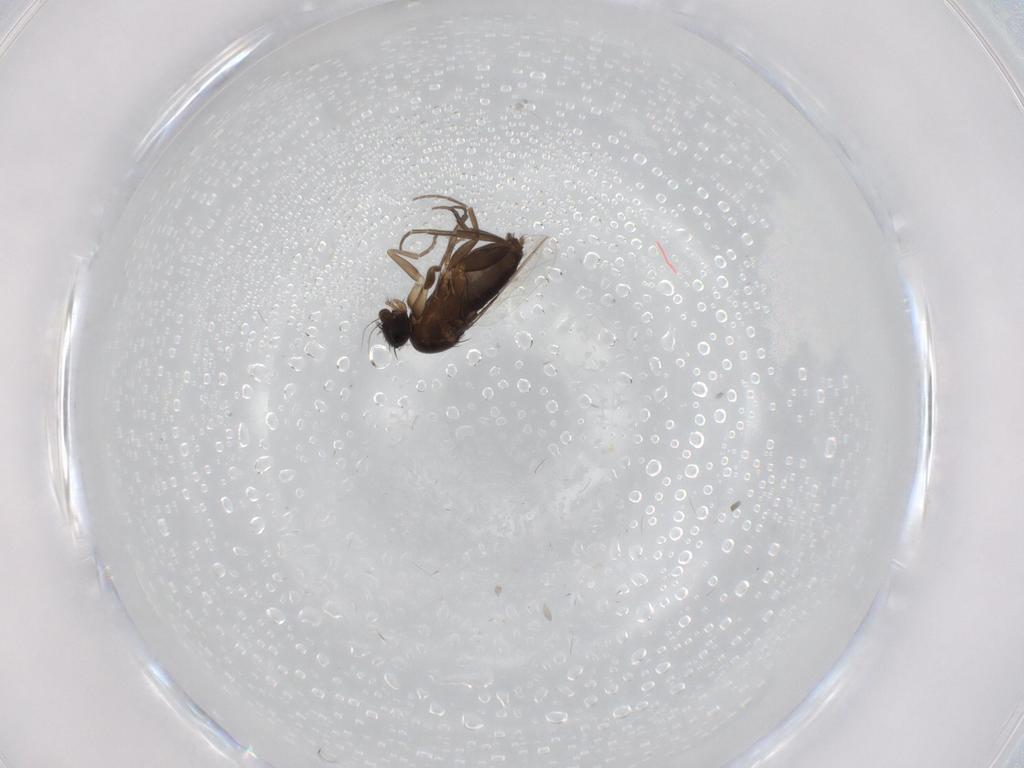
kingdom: Animalia
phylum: Arthropoda
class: Insecta
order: Diptera
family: Phoridae
